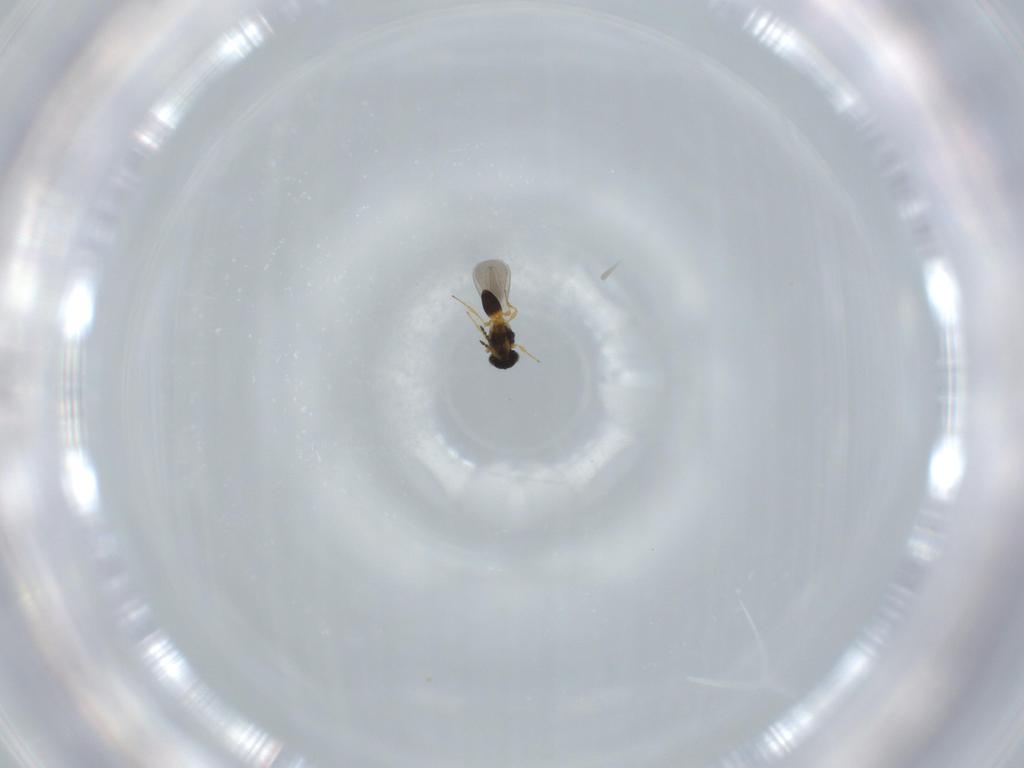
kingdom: Animalia
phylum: Arthropoda
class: Insecta
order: Hymenoptera
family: Platygastridae
